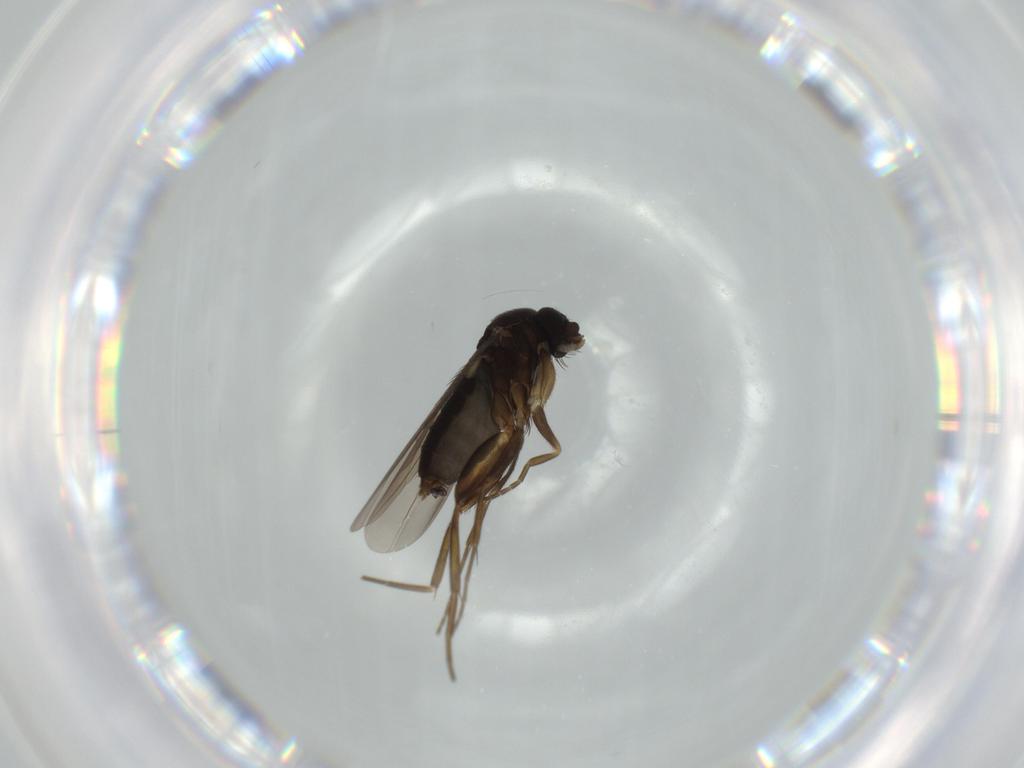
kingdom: Animalia
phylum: Arthropoda
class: Insecta
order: Diptera
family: Phoridae
